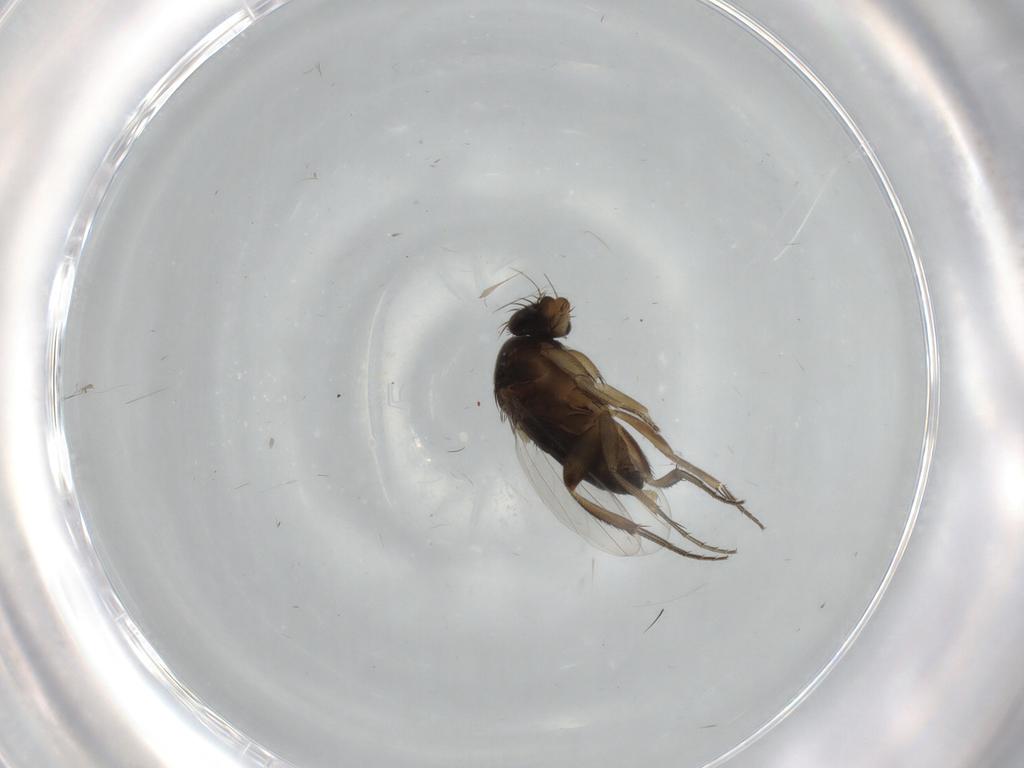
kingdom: Animalia
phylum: Arthropoda
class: Insecta
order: Diptera
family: Phoridae
